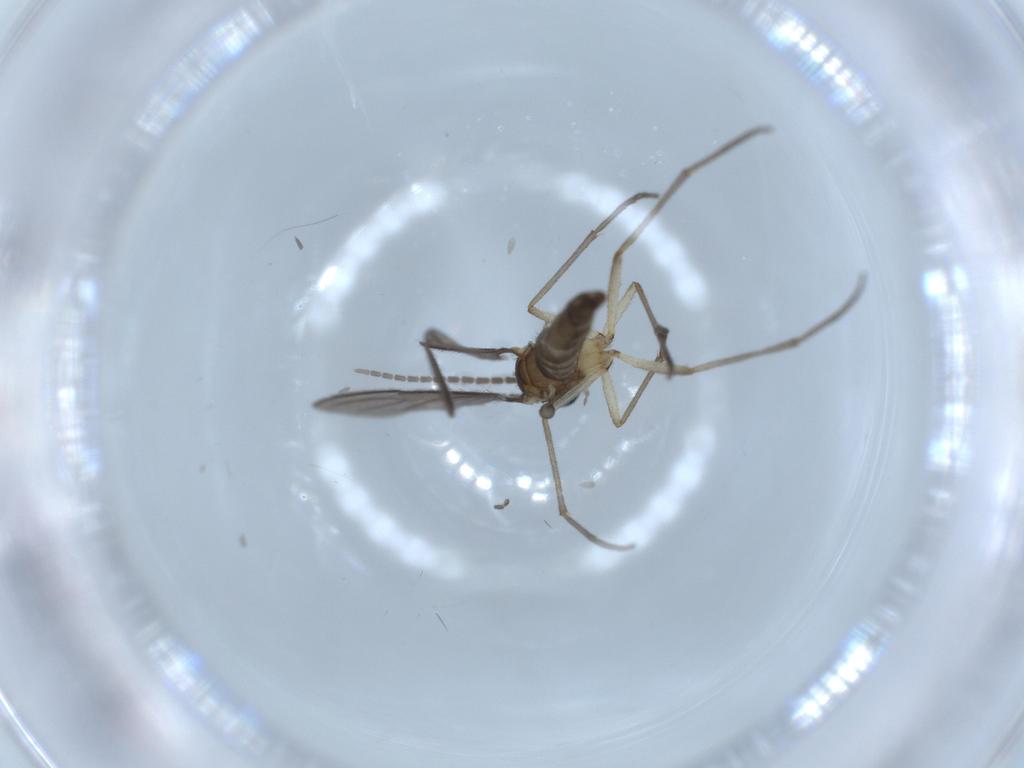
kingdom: Animalia
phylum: Arthropoda
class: Insecta
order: Diptera
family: Sciaridae
